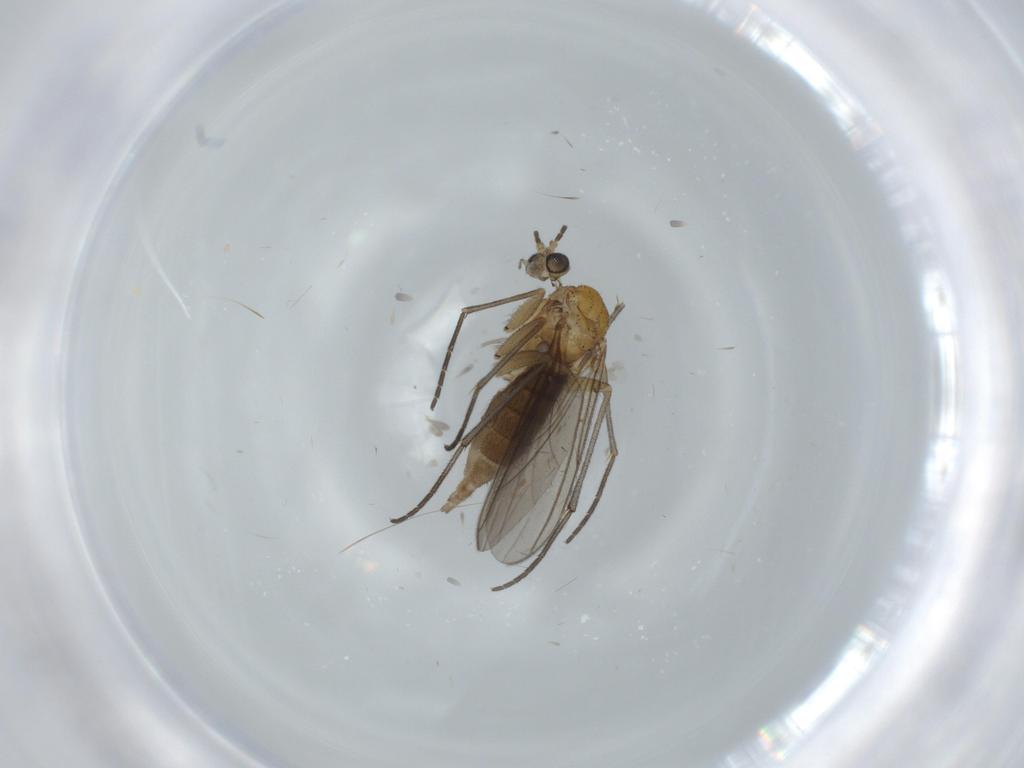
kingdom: Animalia
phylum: Arthropoda
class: Insecta
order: Diptera
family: Sciaridae
